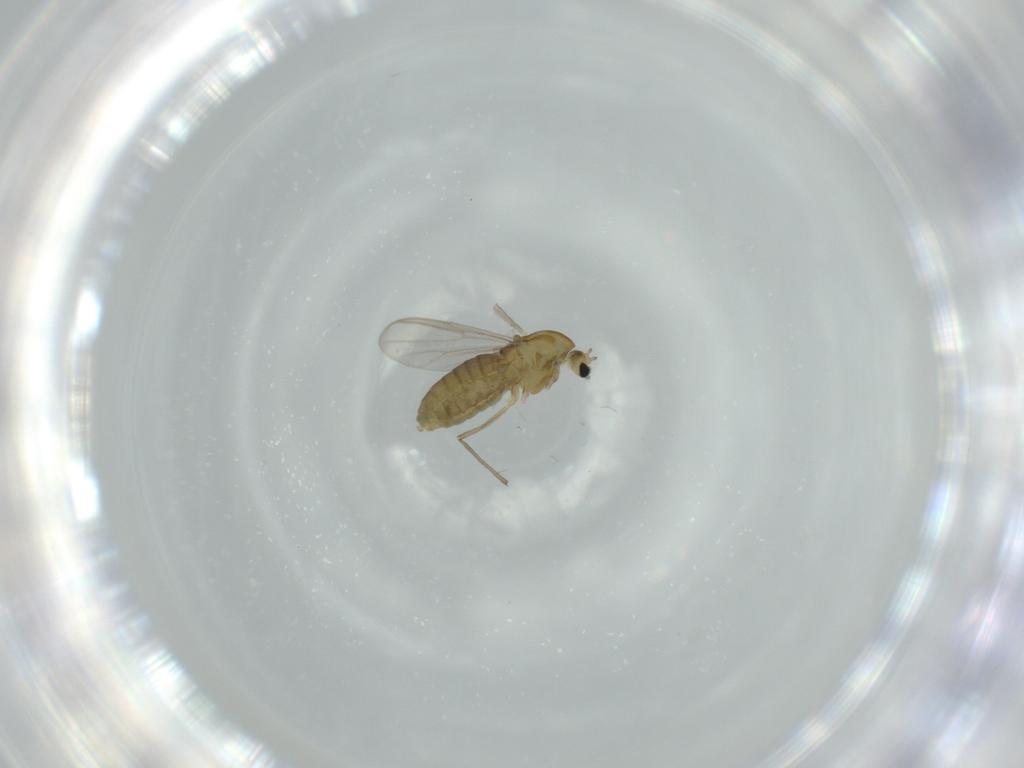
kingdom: Animalia
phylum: Arthropoda
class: Insecta
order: Diptera
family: Chironomidae
